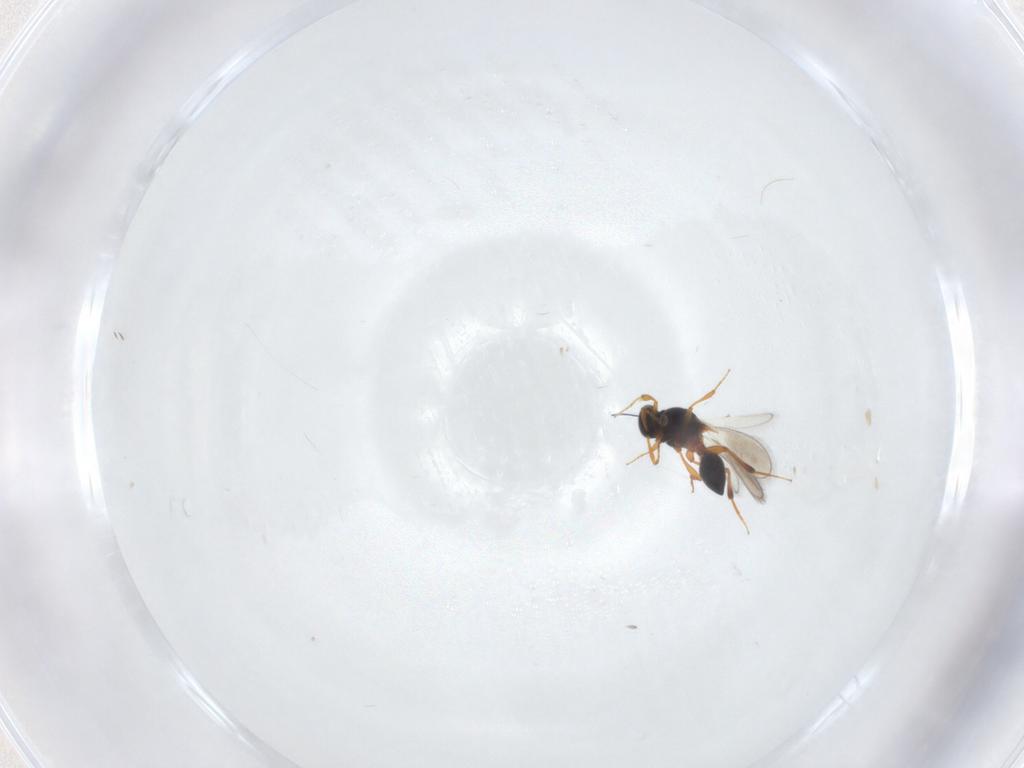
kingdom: Animalia
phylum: Arthropoda
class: Insecta
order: Hymenoptera
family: Platygastridae
